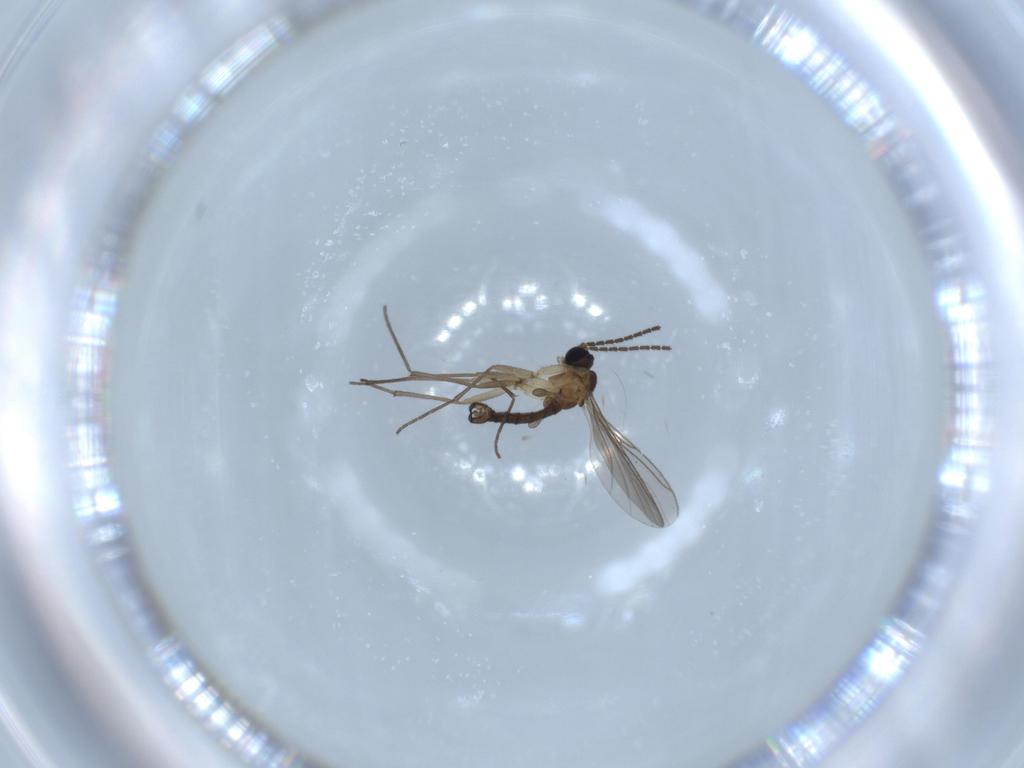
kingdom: Animalia
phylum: Arthropoda
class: Insecta
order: Diptera
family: Sciaridae
